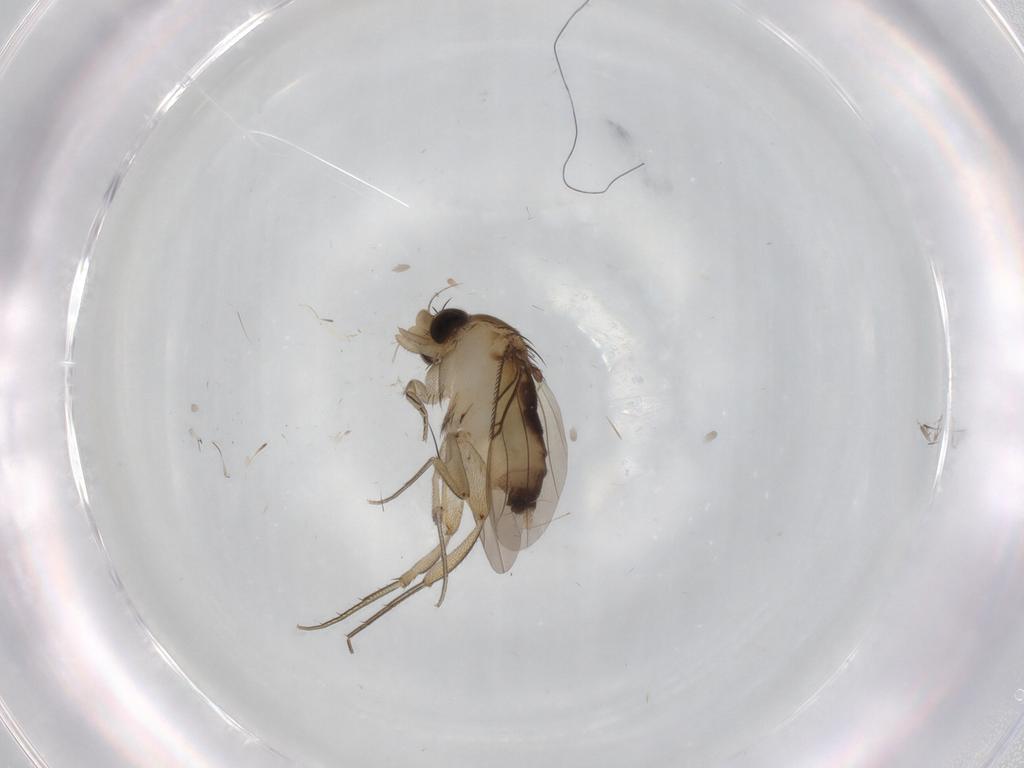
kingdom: Animalia
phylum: Arthropoda
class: Insecta
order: Diptera
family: Phoridae
